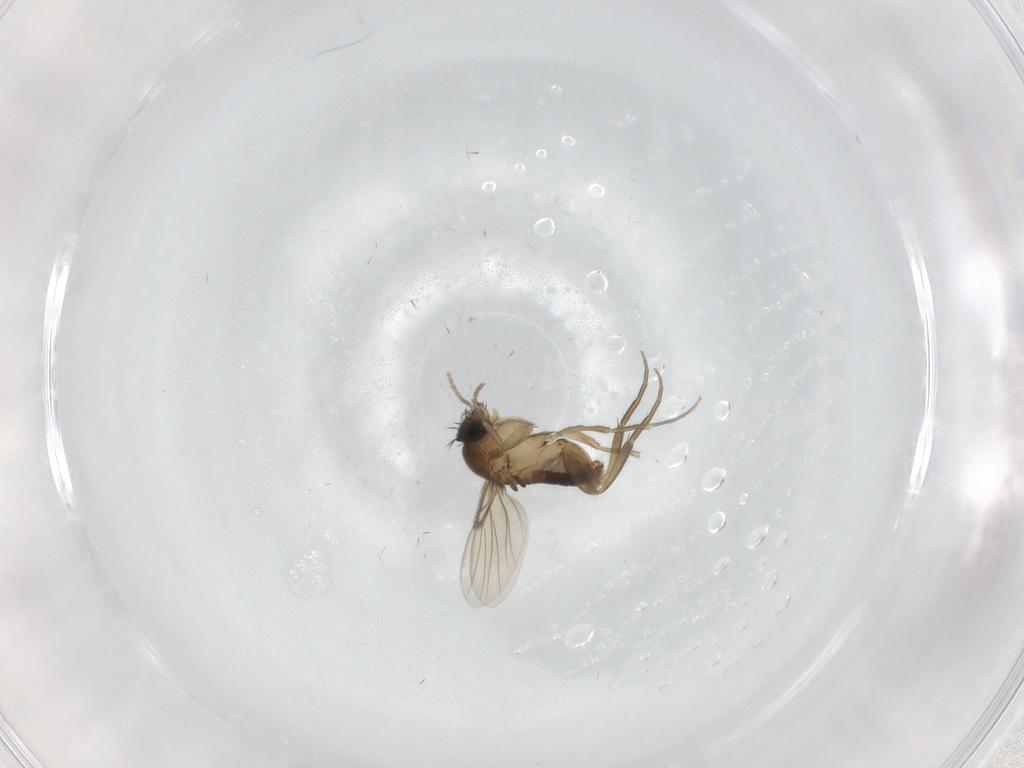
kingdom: Animalia
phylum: Arthropoda
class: Insecta
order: Diptera
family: Phoridae
